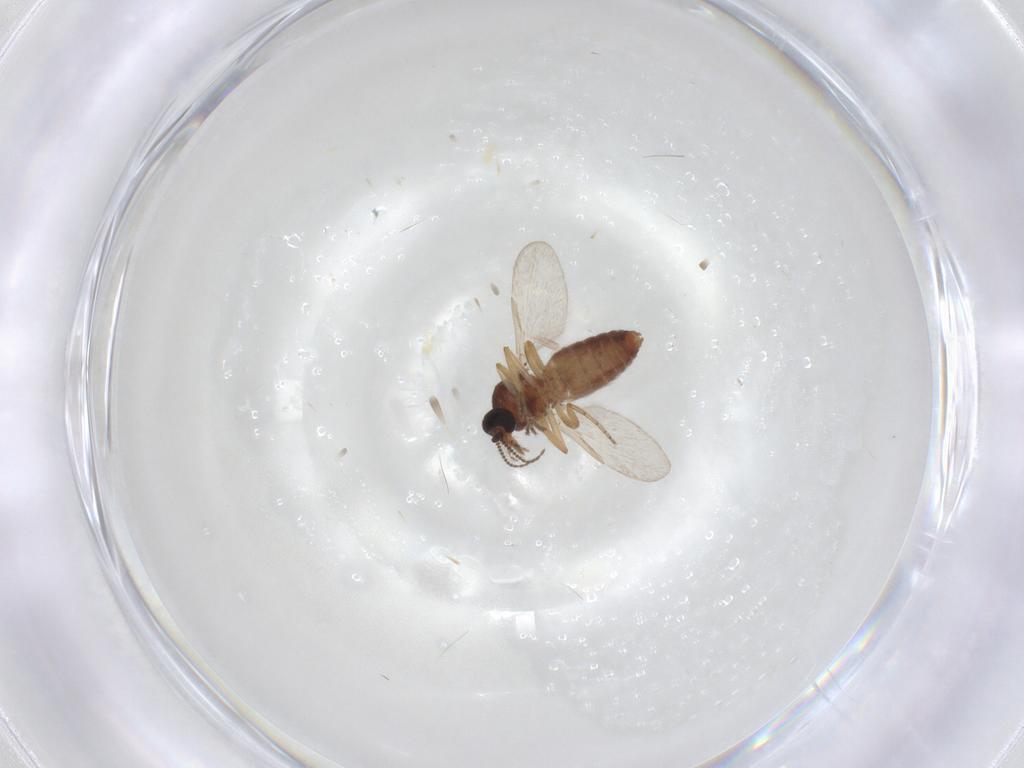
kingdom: Animalia
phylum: Arthropoda
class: Insecta
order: Diptera
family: Ceratopogonidae
